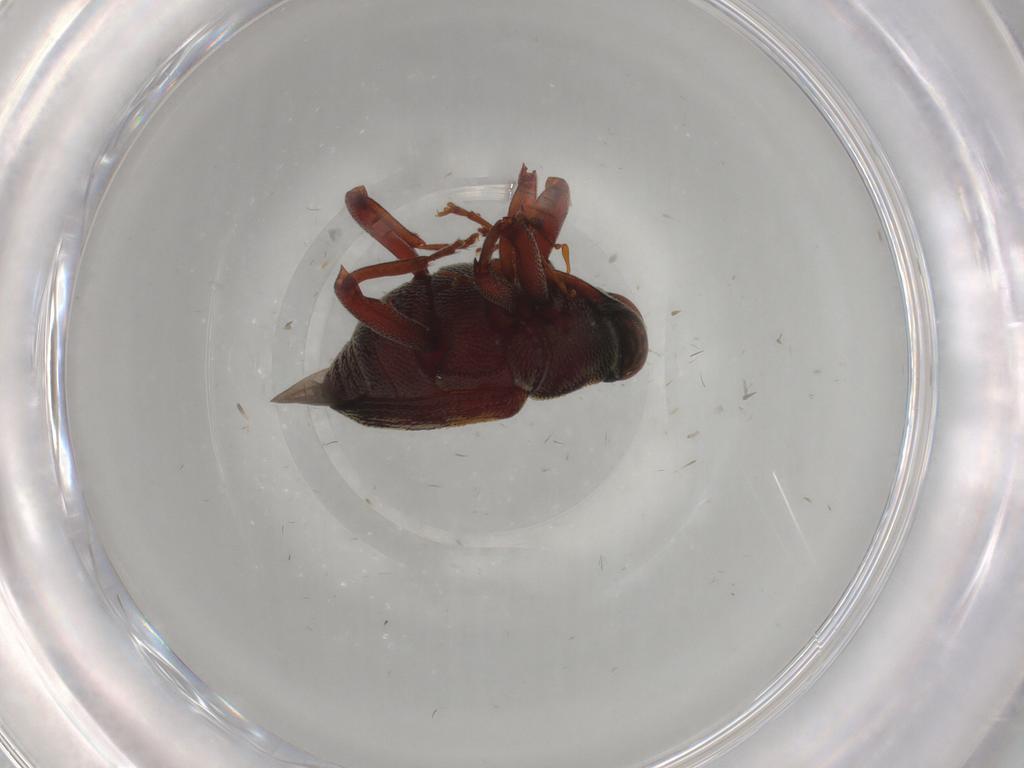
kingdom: Animalia
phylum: Arthropoda
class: Insecta
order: Coleoptera
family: Curculionidae
